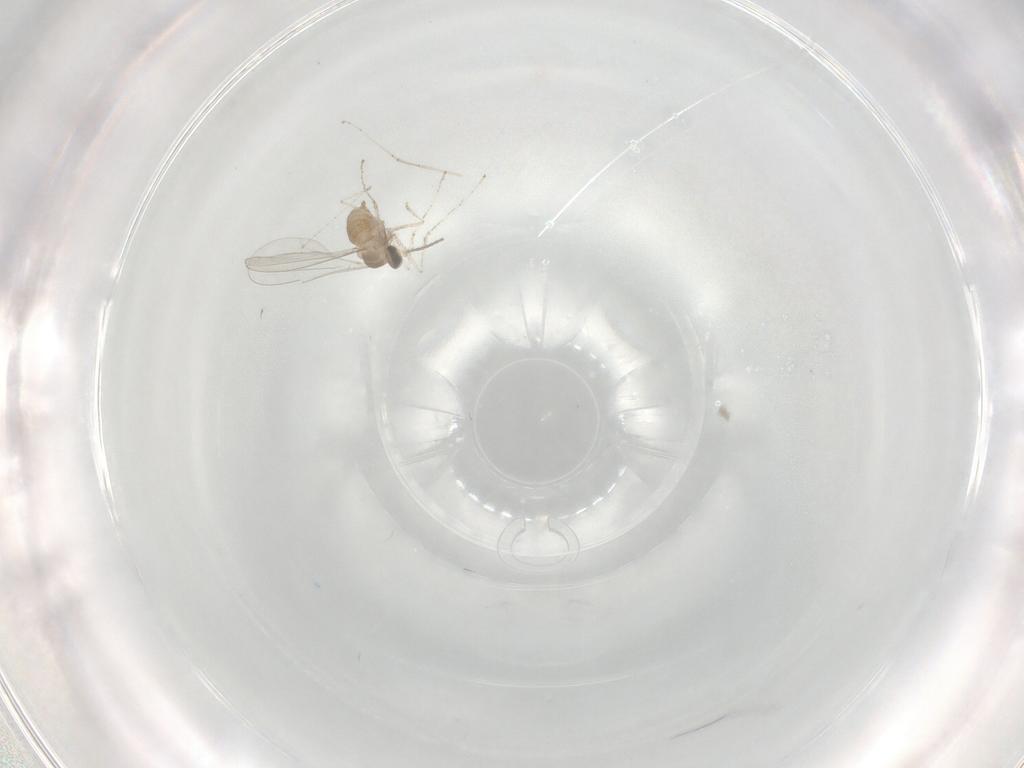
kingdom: Animalia
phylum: Arthropoda
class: Insecta
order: Diptera
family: Cecidomyiidae
